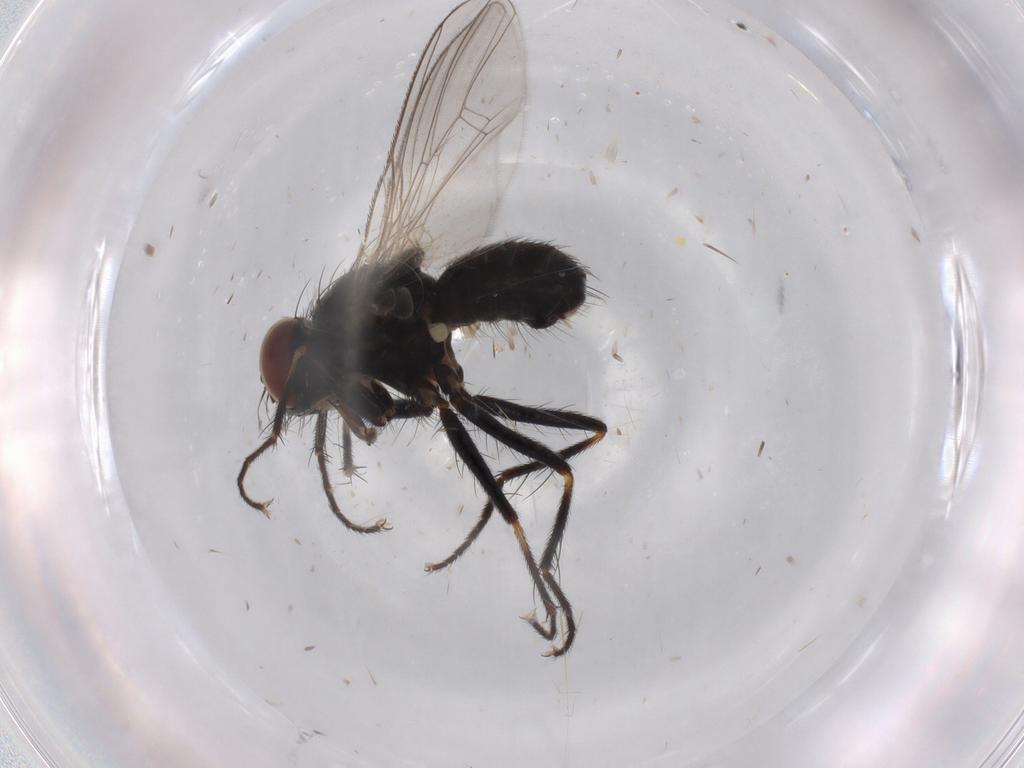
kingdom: Animalia
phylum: Arthropoda
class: Insecta
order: Diptera
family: Muscidae
